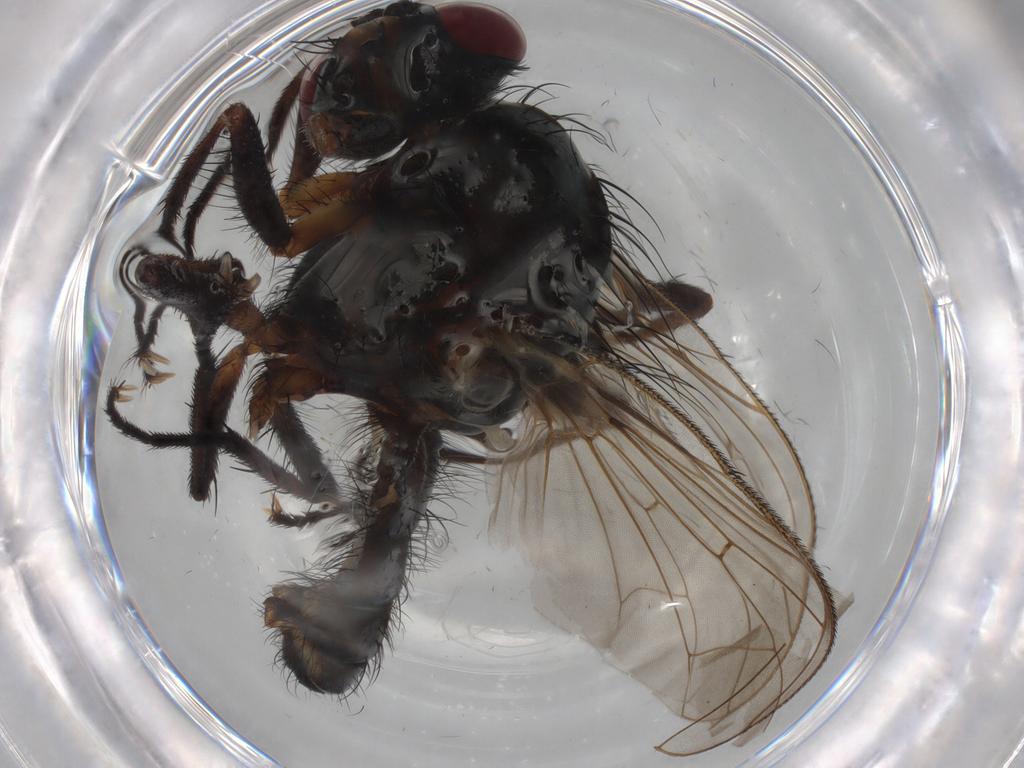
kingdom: Animalia
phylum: Arthropoda
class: Insecta
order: Diptera
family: Anthomyiidae
